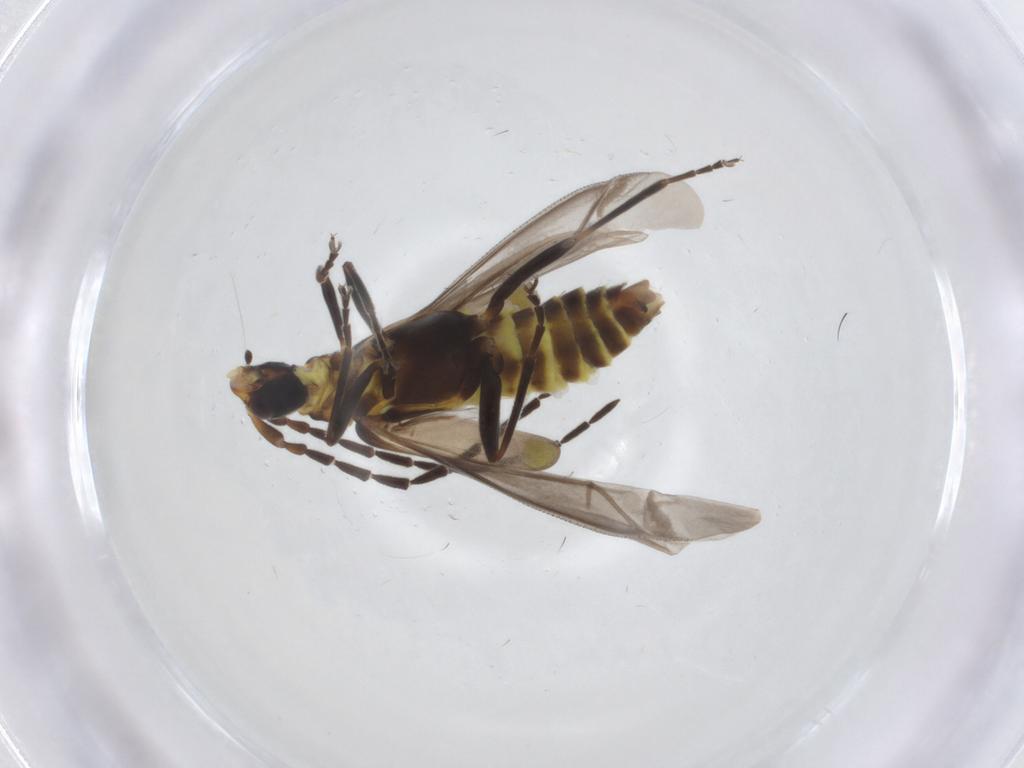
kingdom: Animalia
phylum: Arthropoda
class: Insecta
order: Coleoptera
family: Cantharidae
